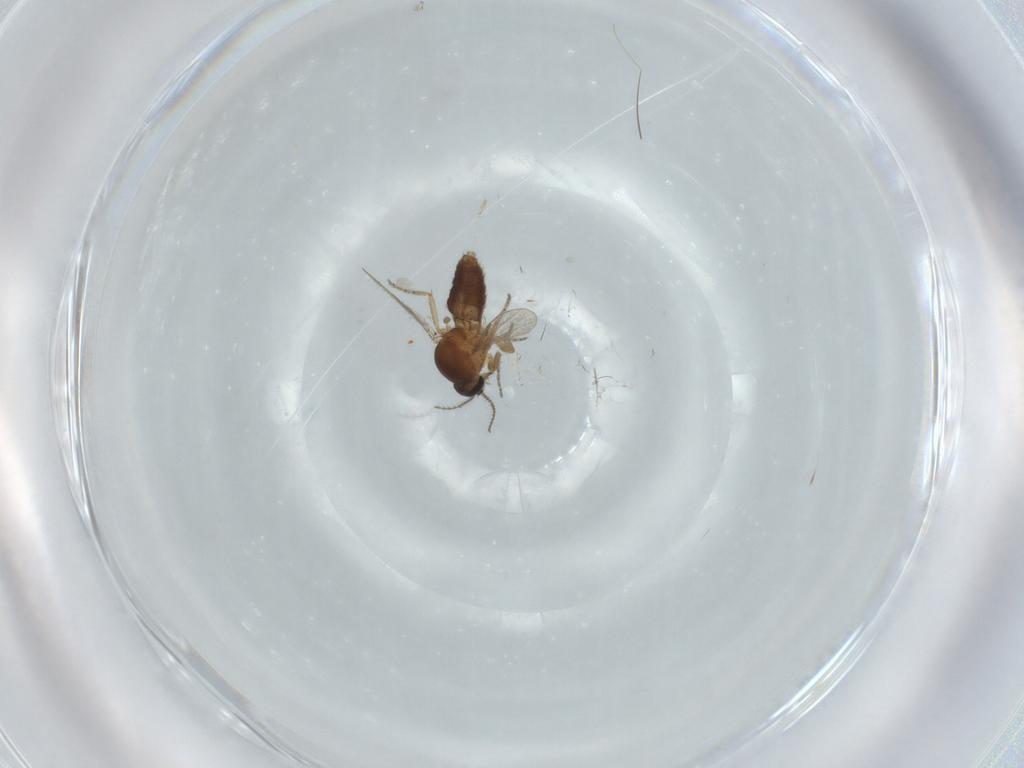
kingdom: Animalia
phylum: Arthropoda
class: Insecta
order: Diptera
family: Ceratopogonidae
